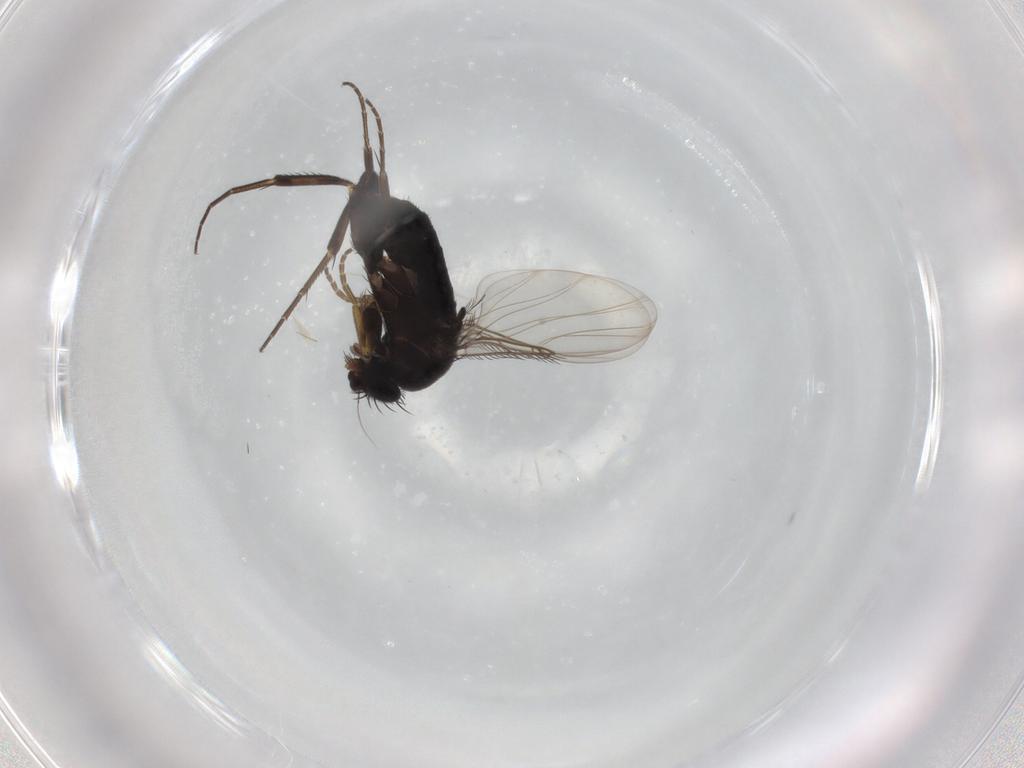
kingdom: Animalia
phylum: Arthropoda
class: Insecta
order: Diptera
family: Phoridae
